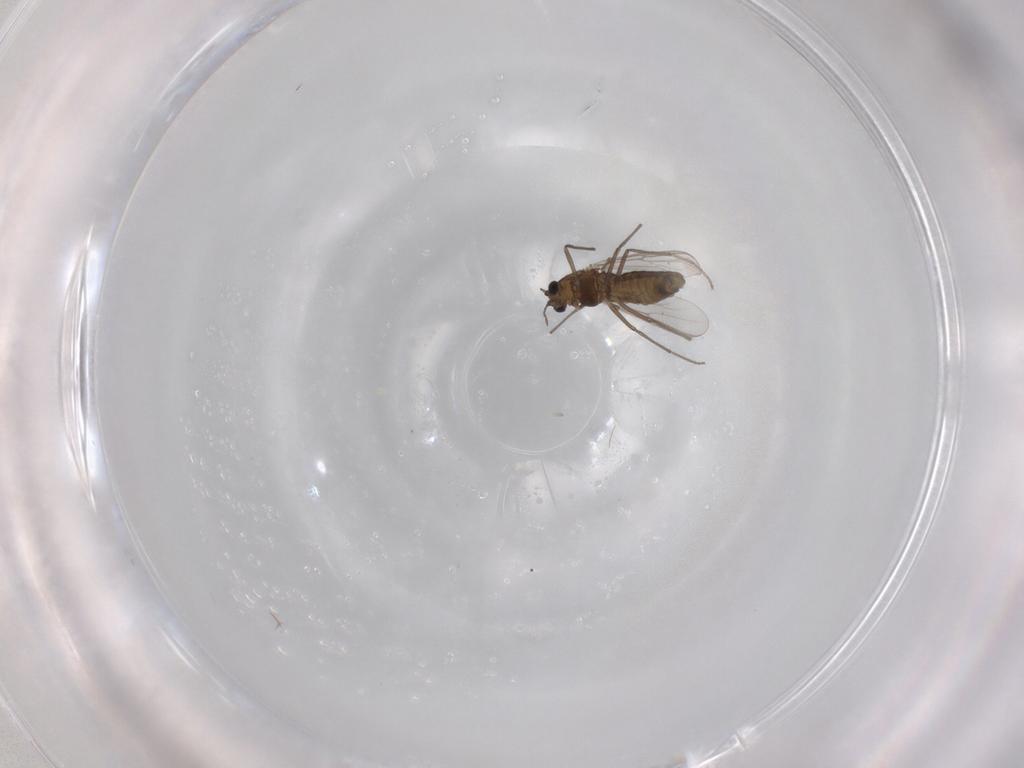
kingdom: Animalia
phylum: Arthropoda
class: Insecta
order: Diptera
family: Chironomidae
